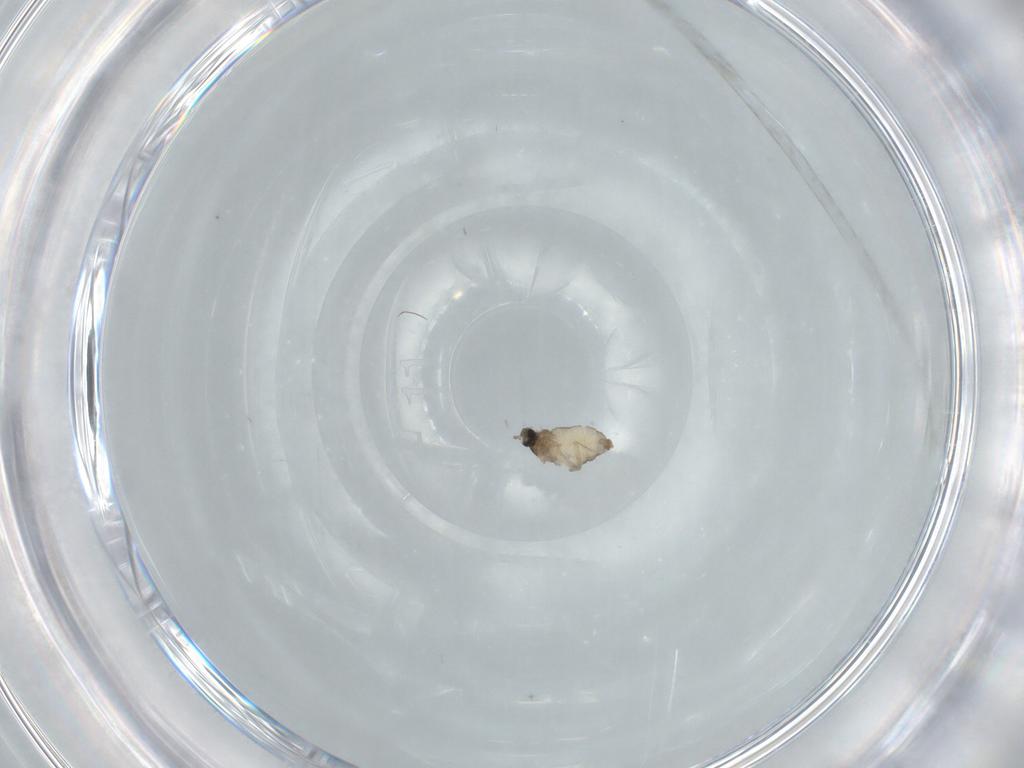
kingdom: Animalia
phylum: Arthropoda
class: Insecta
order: Diptera
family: Cecidomyiidae
